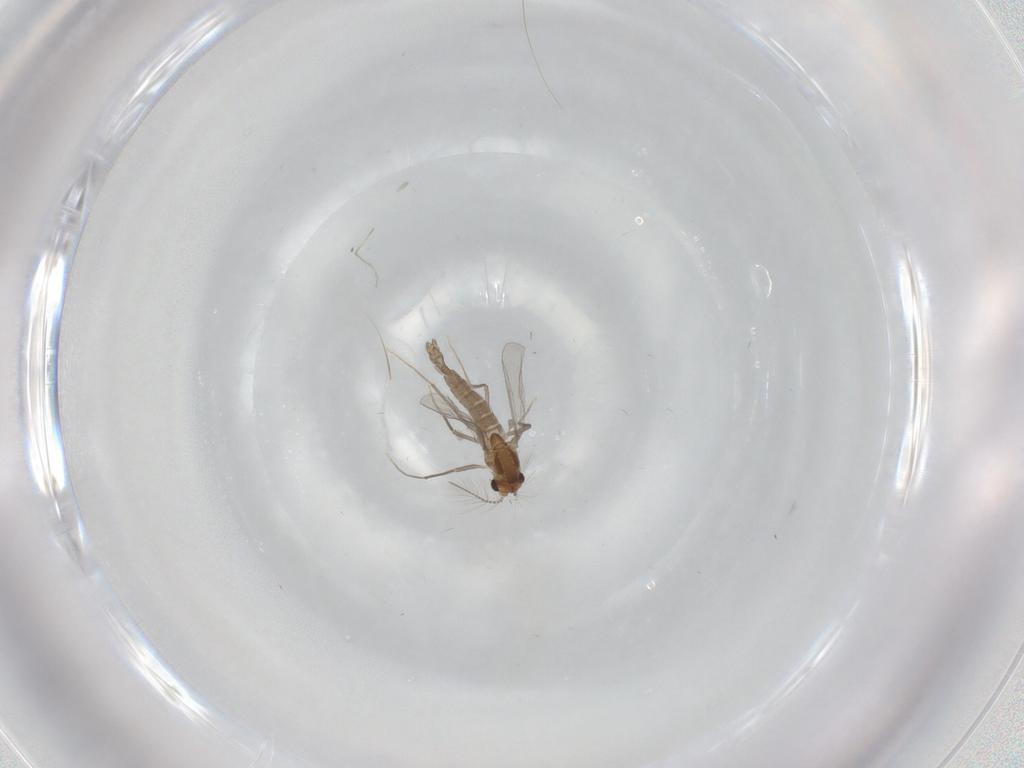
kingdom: Animalia
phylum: Arthropoda
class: Insecta
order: Diptera
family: Chironomidae
